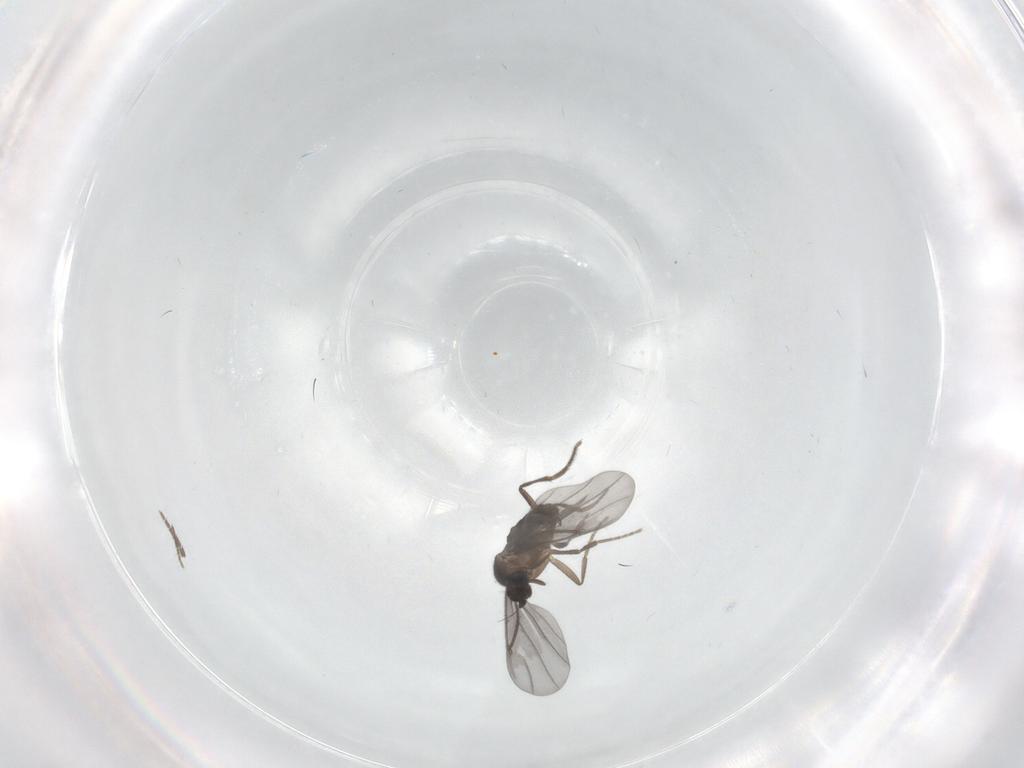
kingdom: Animalia
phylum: Arthropoda
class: Insecta
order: Diptera
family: Phoridae
